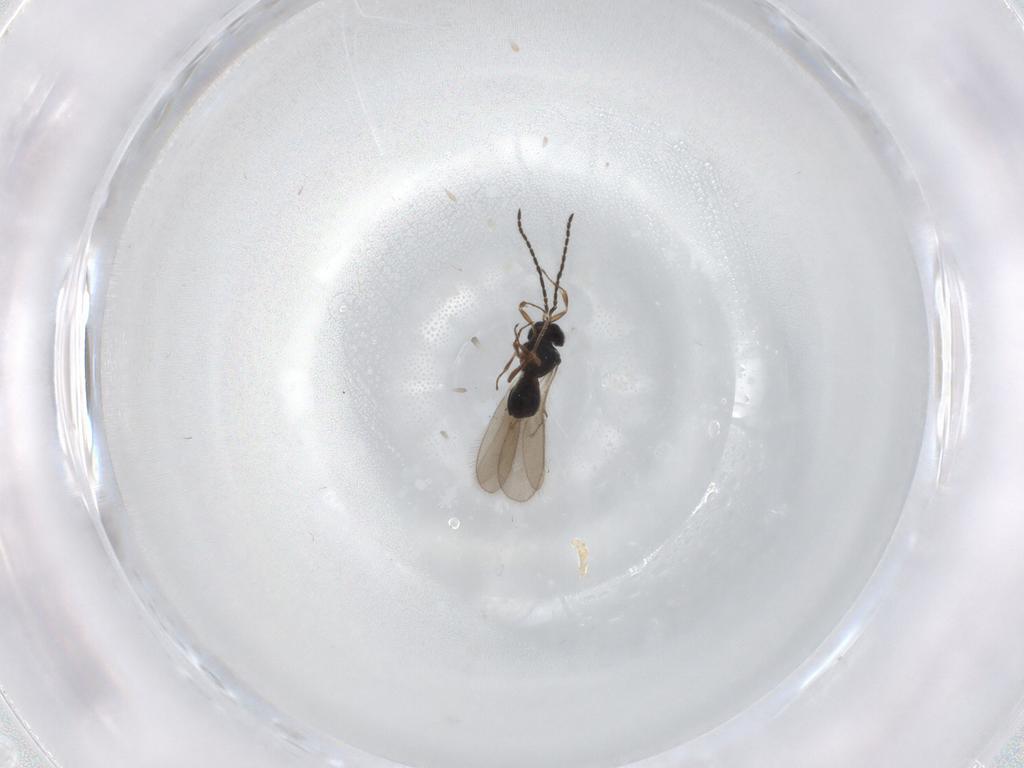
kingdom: Animalia
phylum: Arthropoda
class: Insecta
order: Hymenoptera
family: Scelionidae
